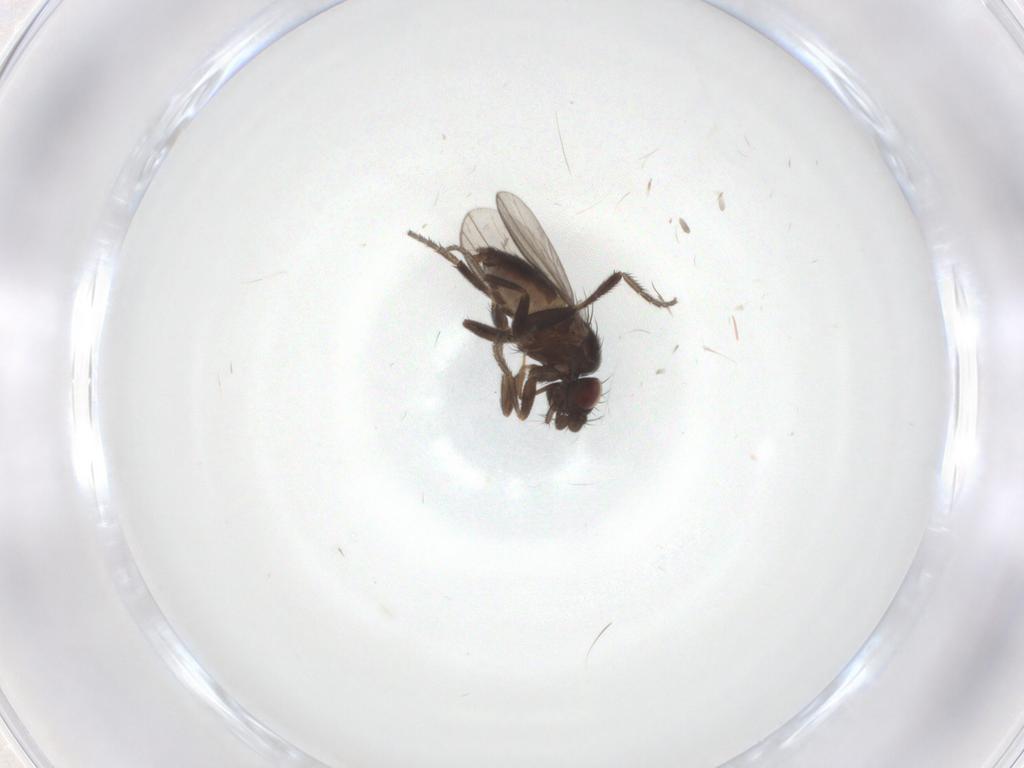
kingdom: Animalia
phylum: Arthropoda
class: Insecta
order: Diptera
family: Milichiidae
